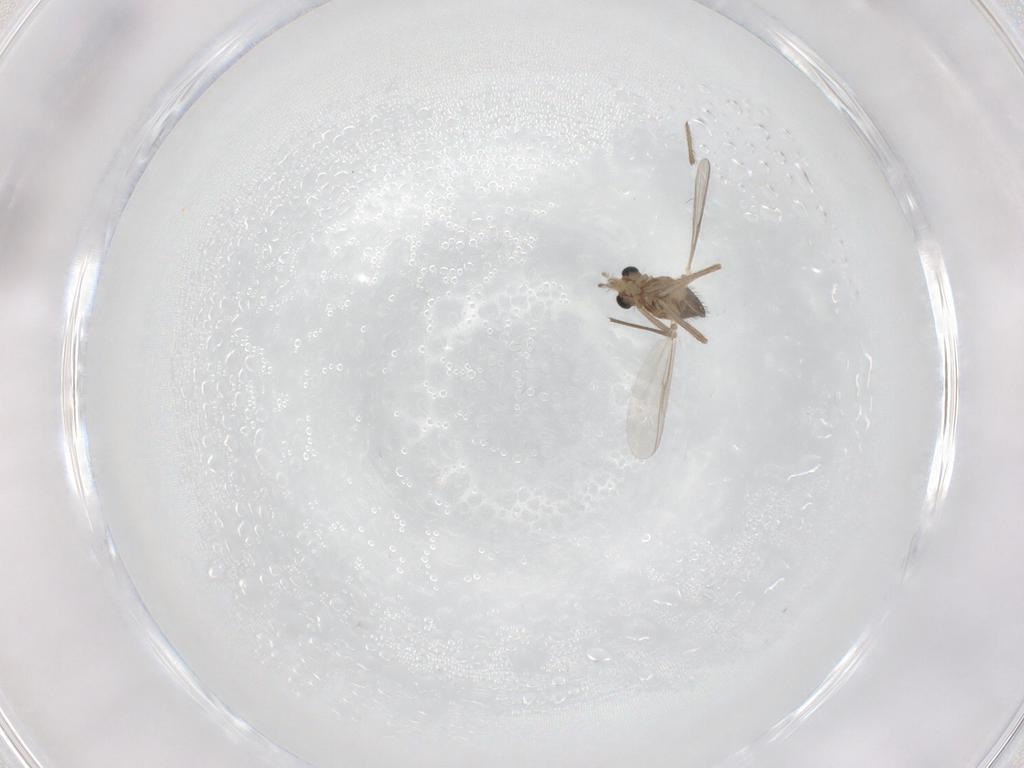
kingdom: Animalia
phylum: Arthropoda
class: Insecta
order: Diptera
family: Chironomidae
